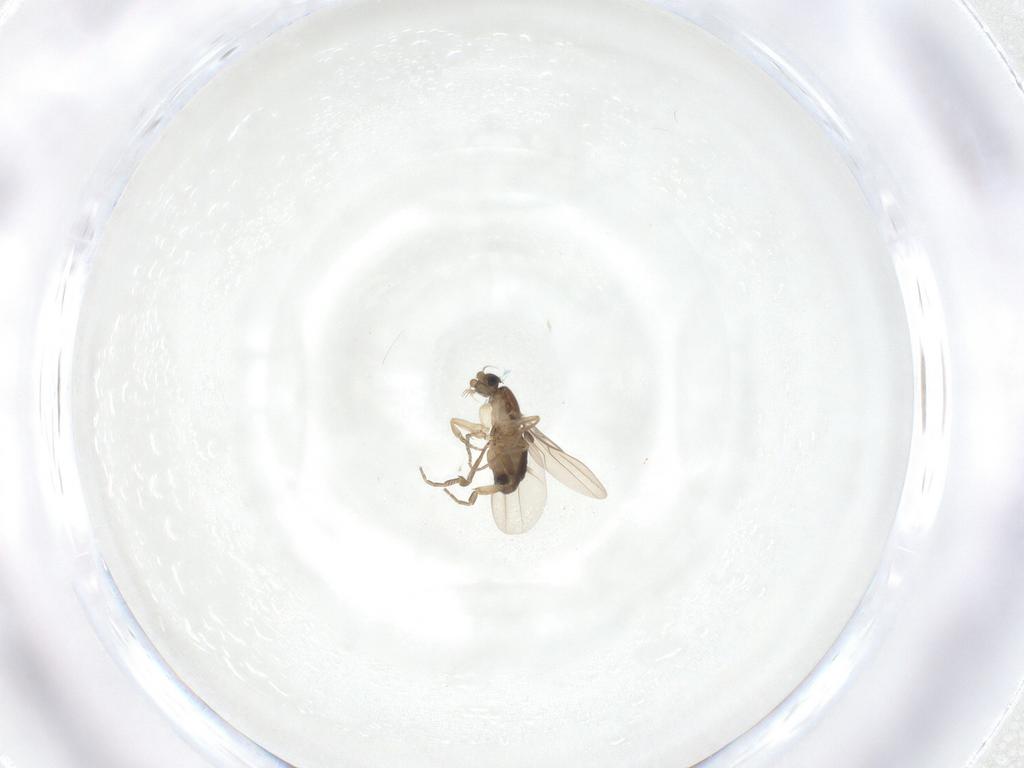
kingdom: Animalia
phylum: Arthropoda
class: Insecta
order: Diptera
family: Phoridae
